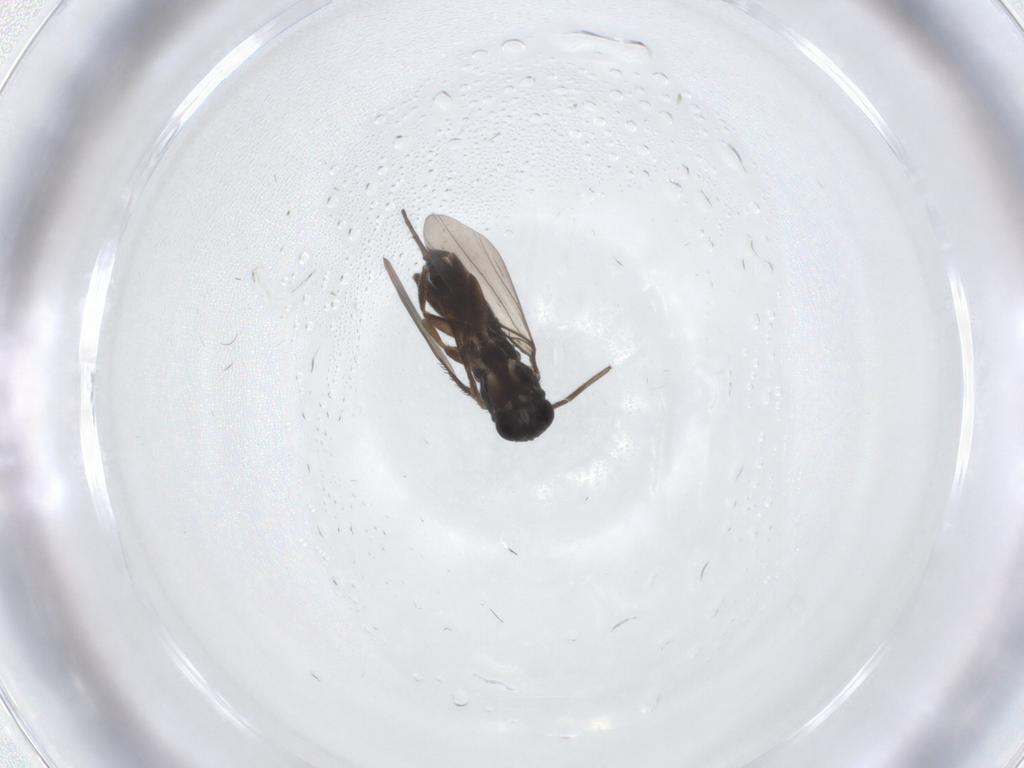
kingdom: Animalia
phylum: Arthropoda
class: Insecta
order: Diptera
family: Phoridae
